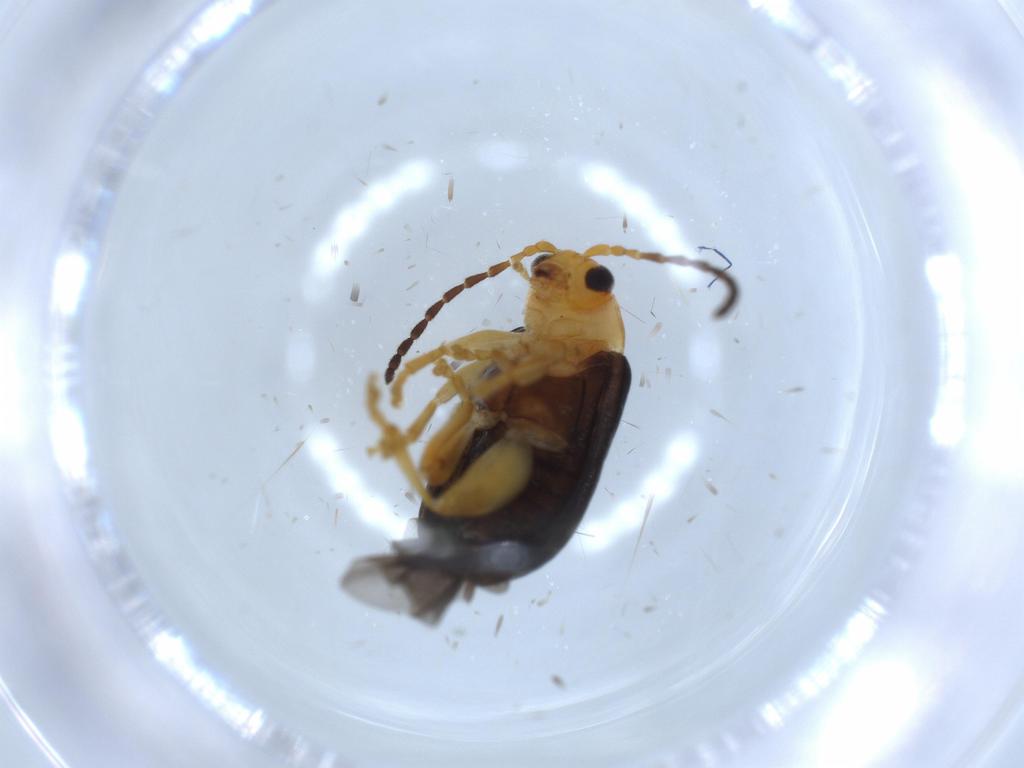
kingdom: Animalia
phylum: Arthropoda
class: Insecta
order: Coleoptera
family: Chrysomelidae
